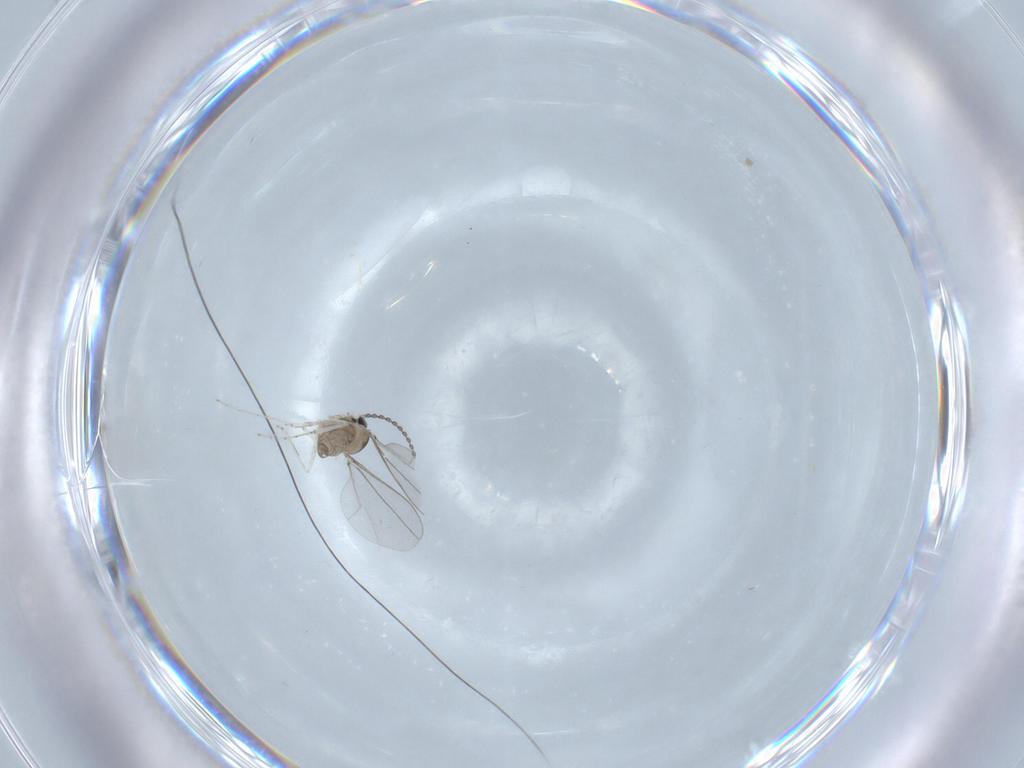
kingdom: Animalia
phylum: Arthropoda
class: Insecta
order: Diptera
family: Cecidomyiidae
